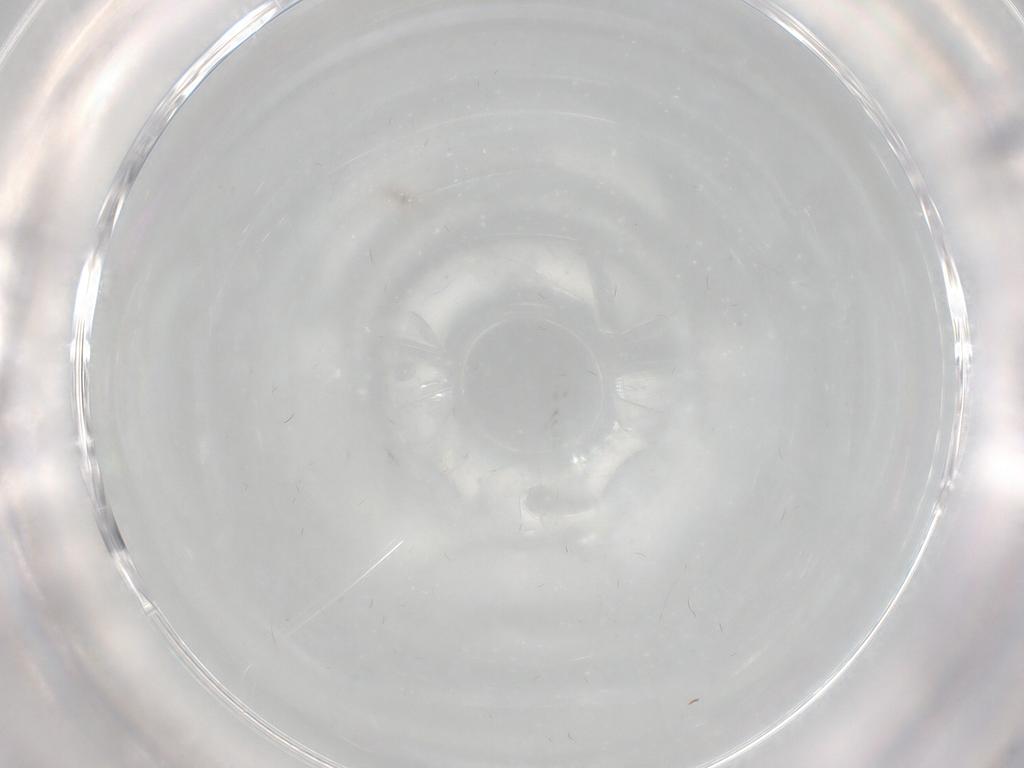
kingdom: Animalia
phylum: Arthropoda
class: Insecta
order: Diptera
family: Chironomidae
